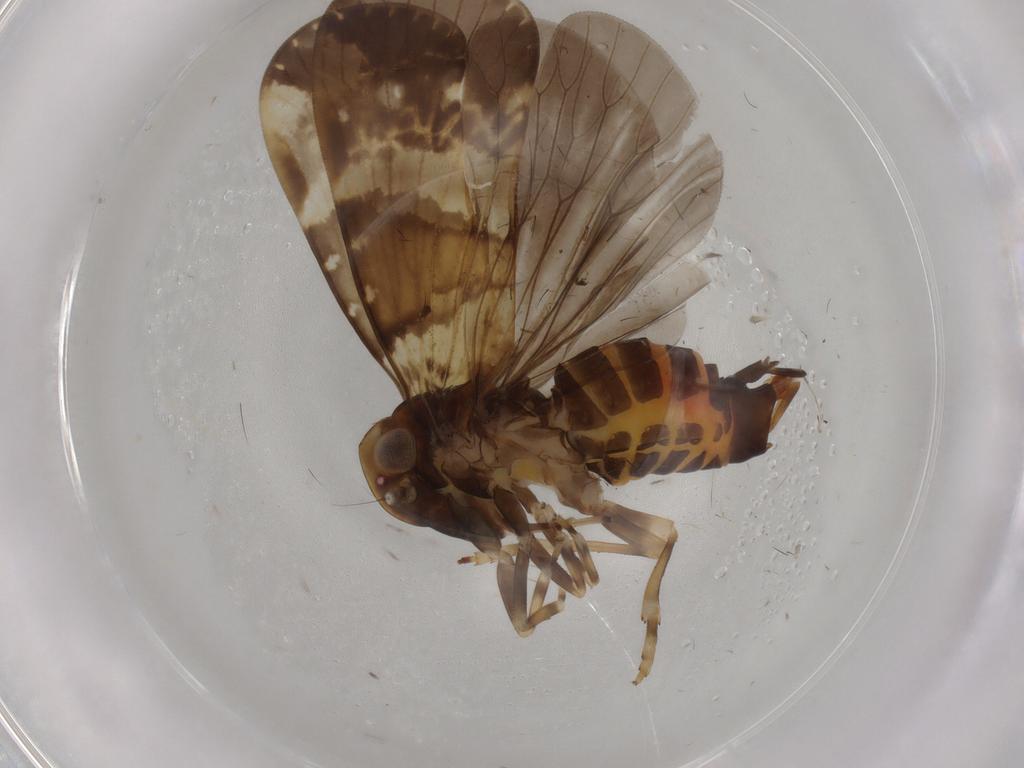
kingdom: Animalia
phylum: Arthropoda
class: Insecta
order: Hemiptera
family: Cixiidae
